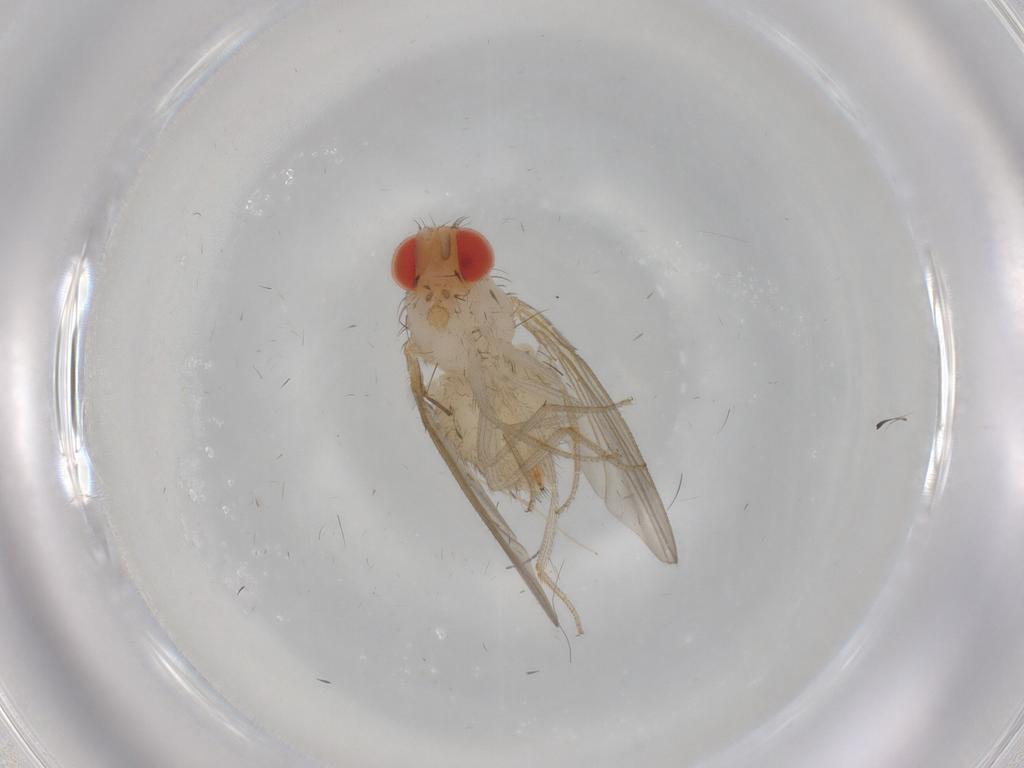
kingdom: Animalia
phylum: Arthropoda
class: Insecta
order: Diptera
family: Drosophilidae
